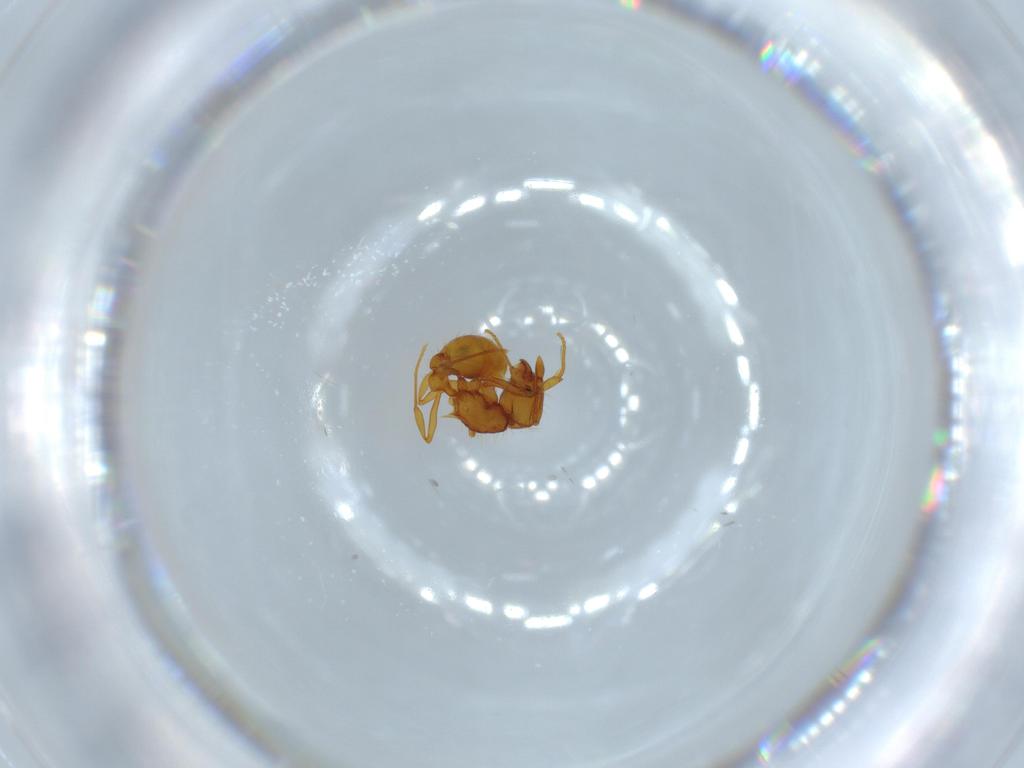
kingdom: Animalia
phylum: Arthropoda
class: Insecta
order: Hymenoptera
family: Formicidae
